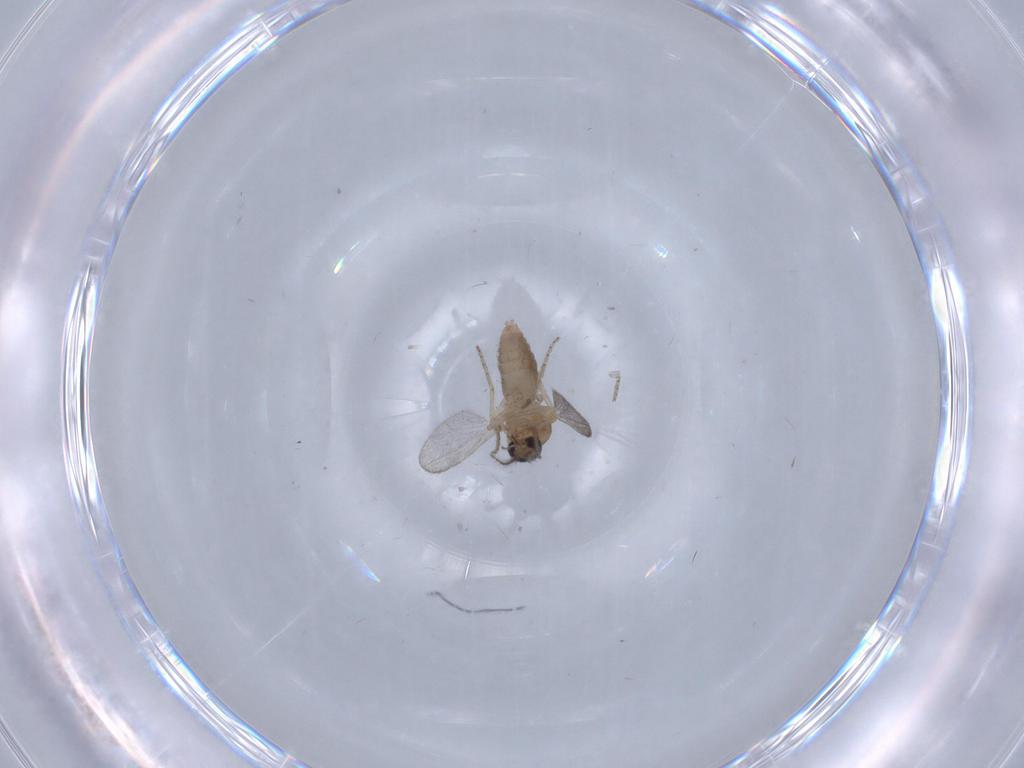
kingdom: Animalia
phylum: Arthropoda
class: Insecta
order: Diptera
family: Ceratopogonidae
